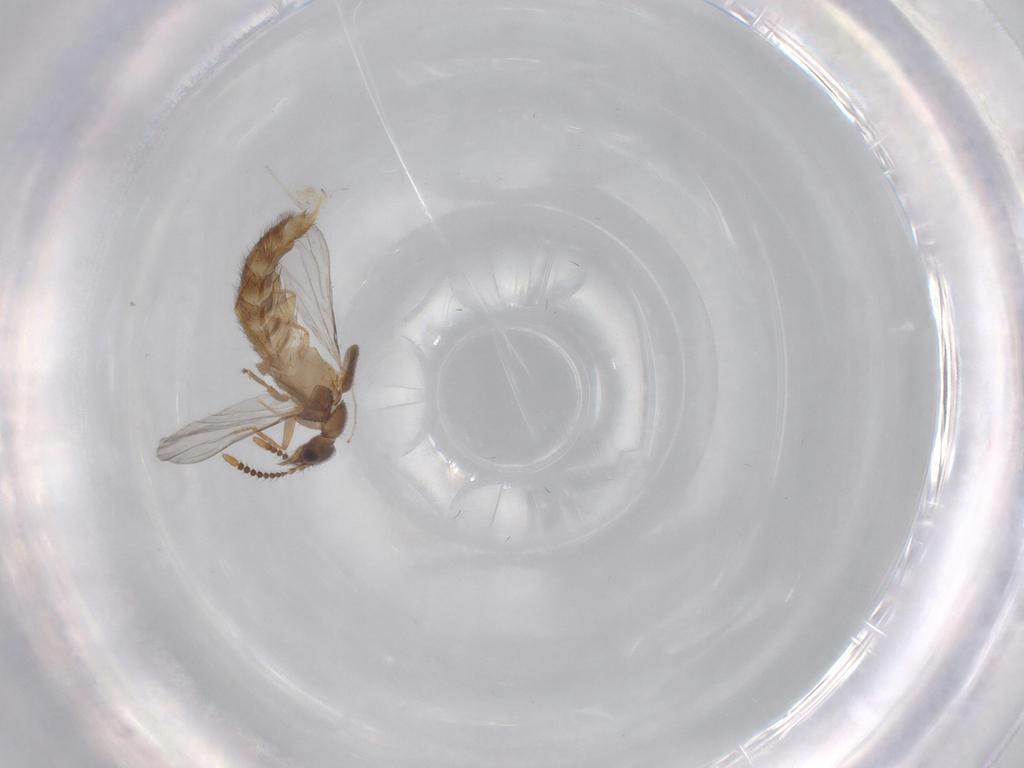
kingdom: Animalia
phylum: Arthropoda
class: Insecta
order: Coleoptera
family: Staphylinidae
